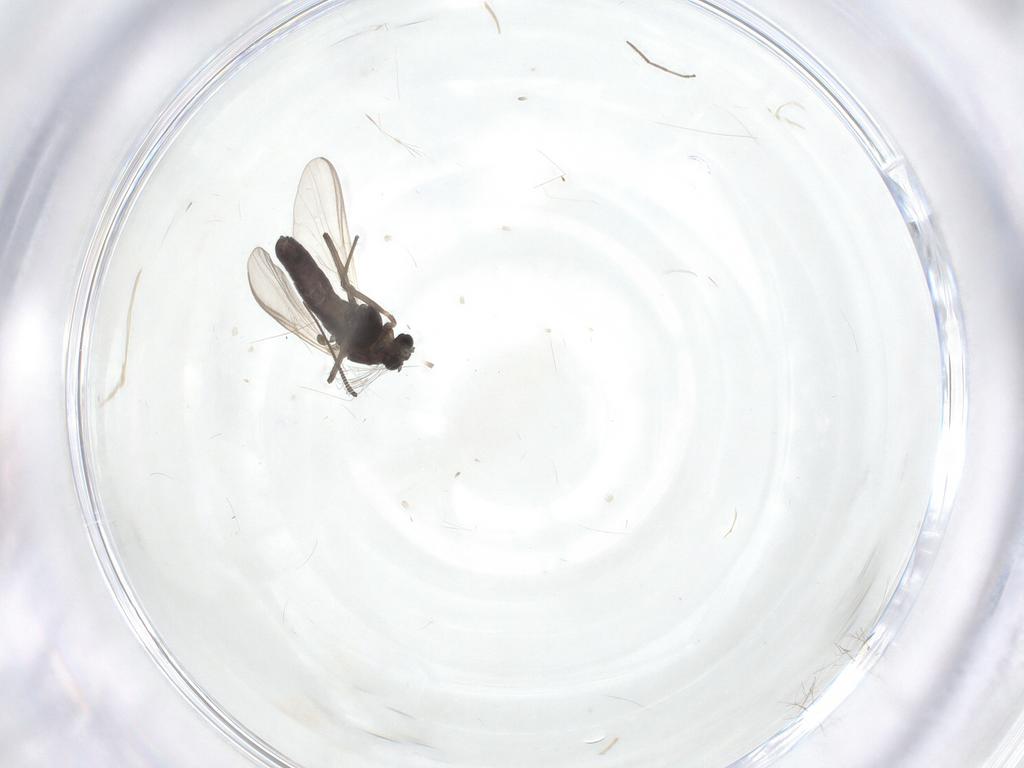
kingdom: Animalia
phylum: Arthropoda
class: Insecta
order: Diptera
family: Chironomidae
